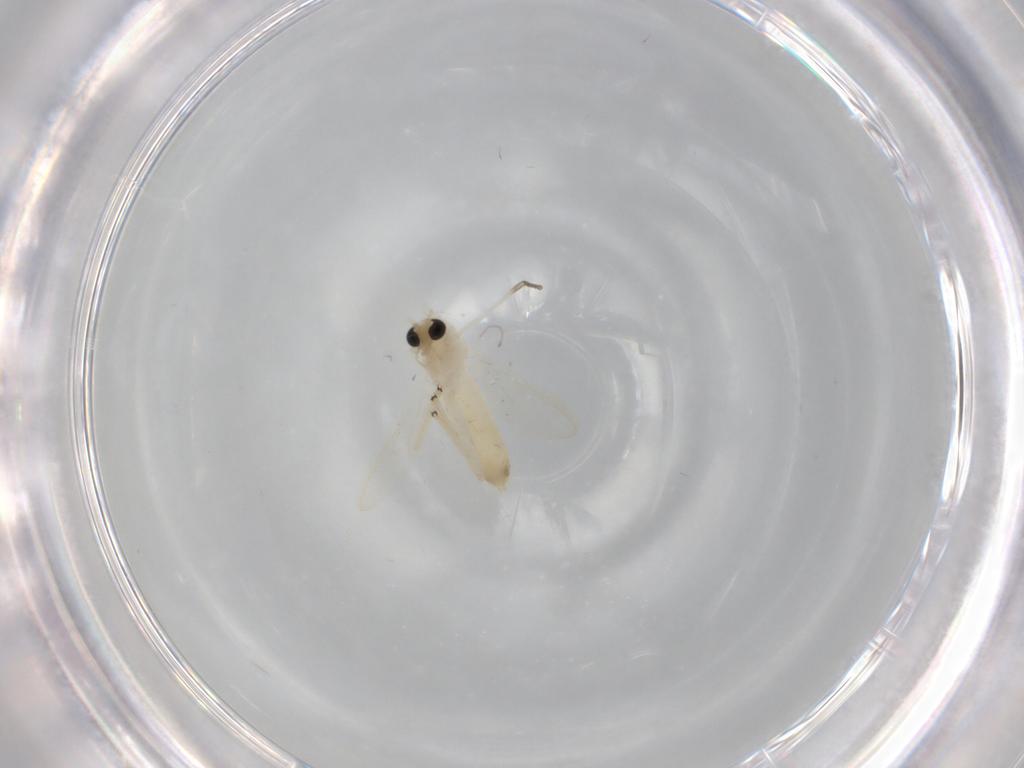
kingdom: Animalia
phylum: Arthropoda
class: Insecta
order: Diptera
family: Chironomidae
